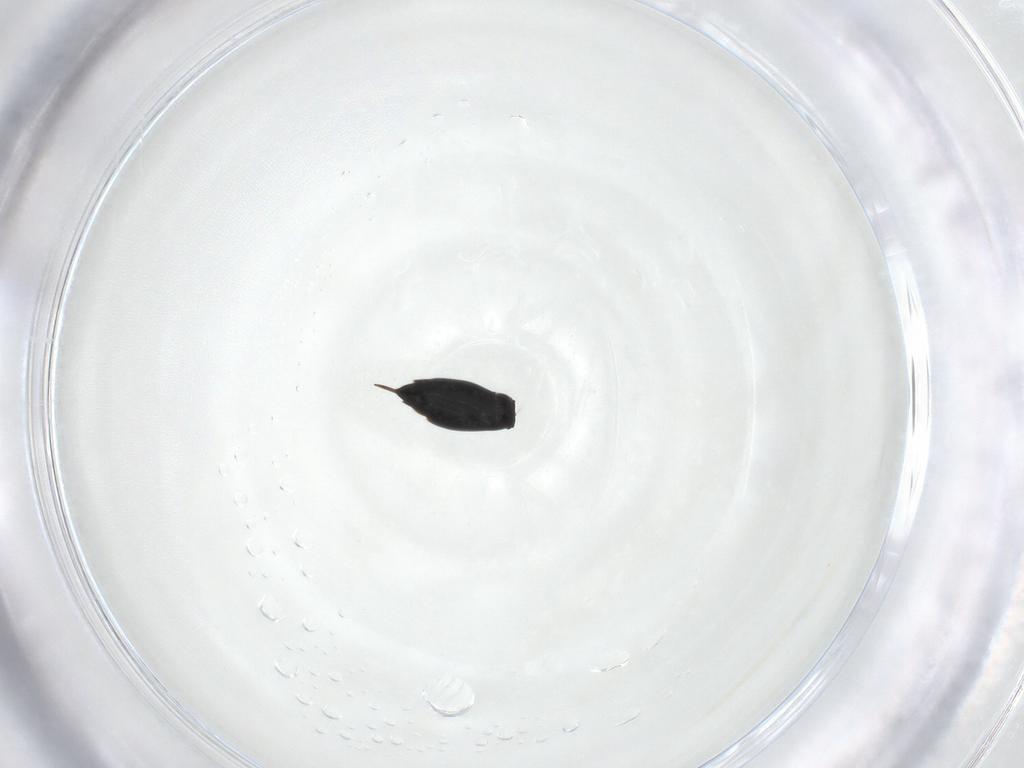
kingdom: Animalia
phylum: Arthropoda
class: Insecta
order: Hymenoptera
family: Scelionidae
